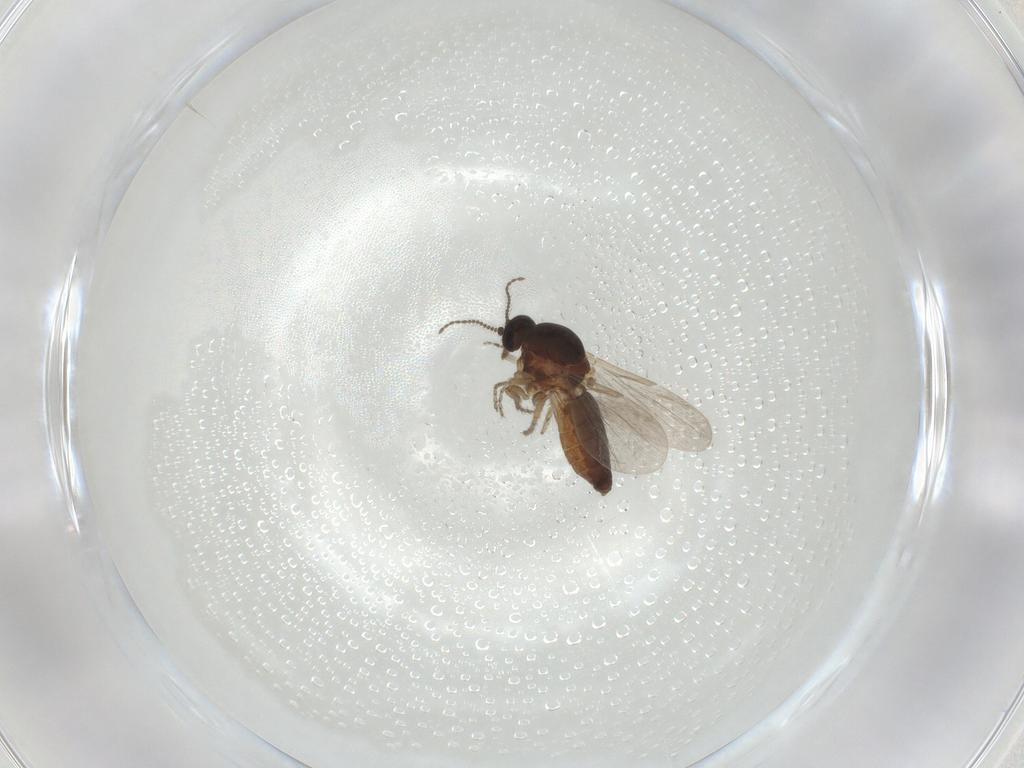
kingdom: Animalia
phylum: Arthropoda
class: Insecta
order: Diptera
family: Ceratopogonidae
